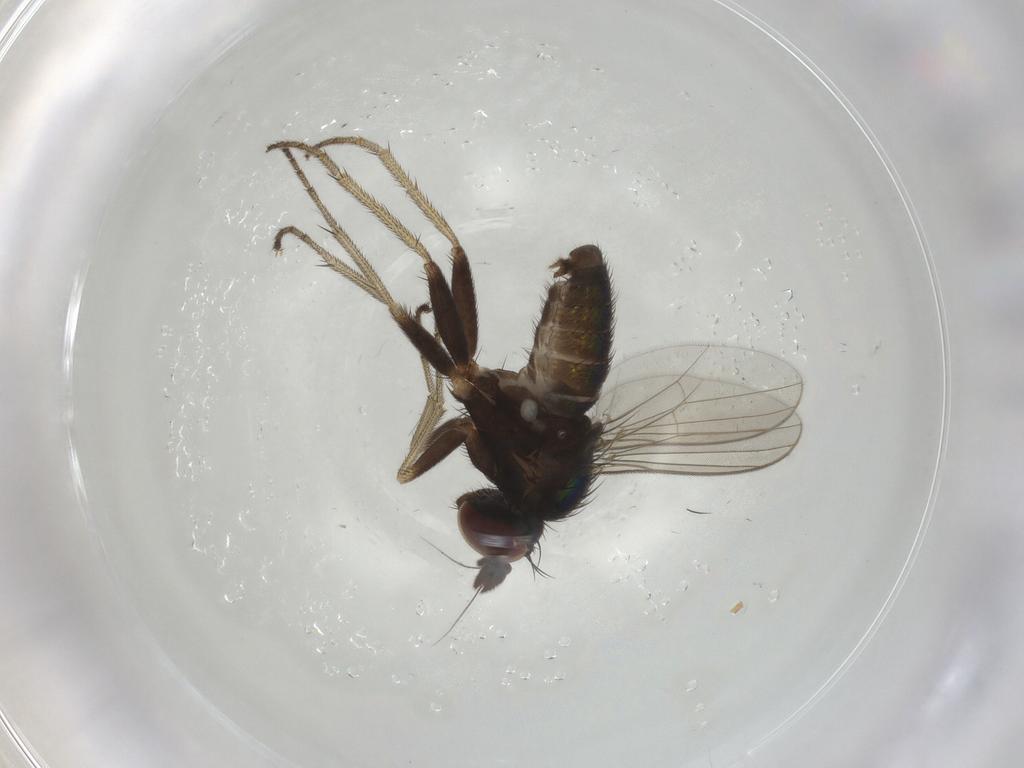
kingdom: Animalia
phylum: Arthropoda
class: Insecta
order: Diptera
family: Dolichopodidae
